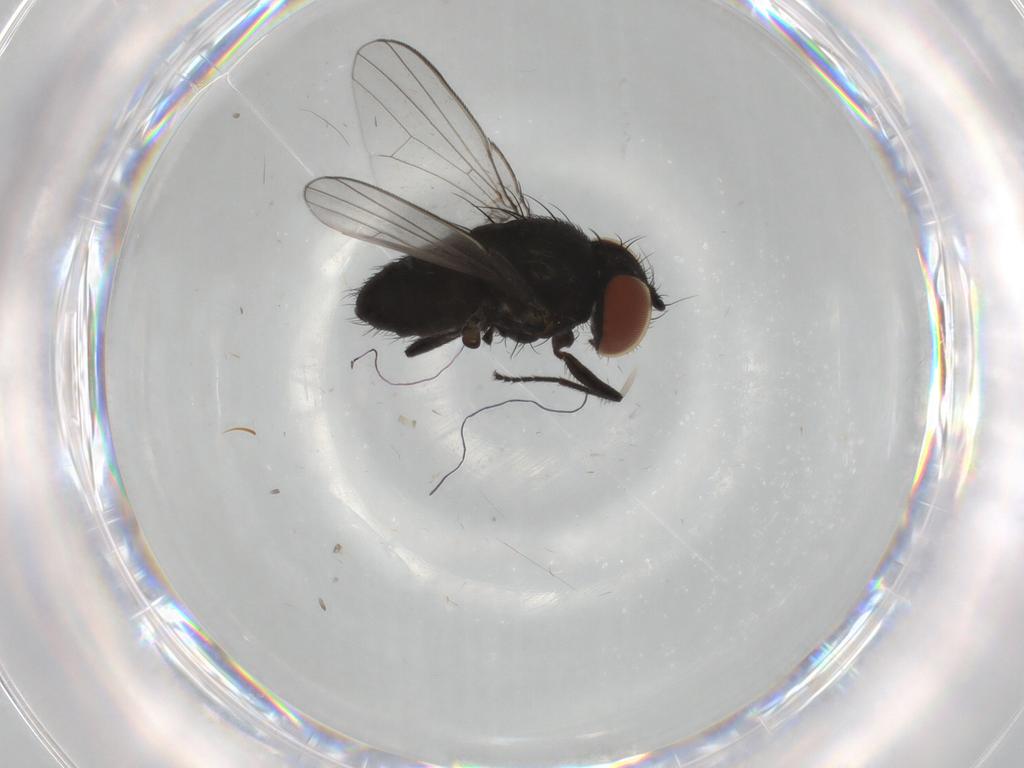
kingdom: Animalia
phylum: Arthropoda
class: Insecta
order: Diptera
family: Milichiidae
